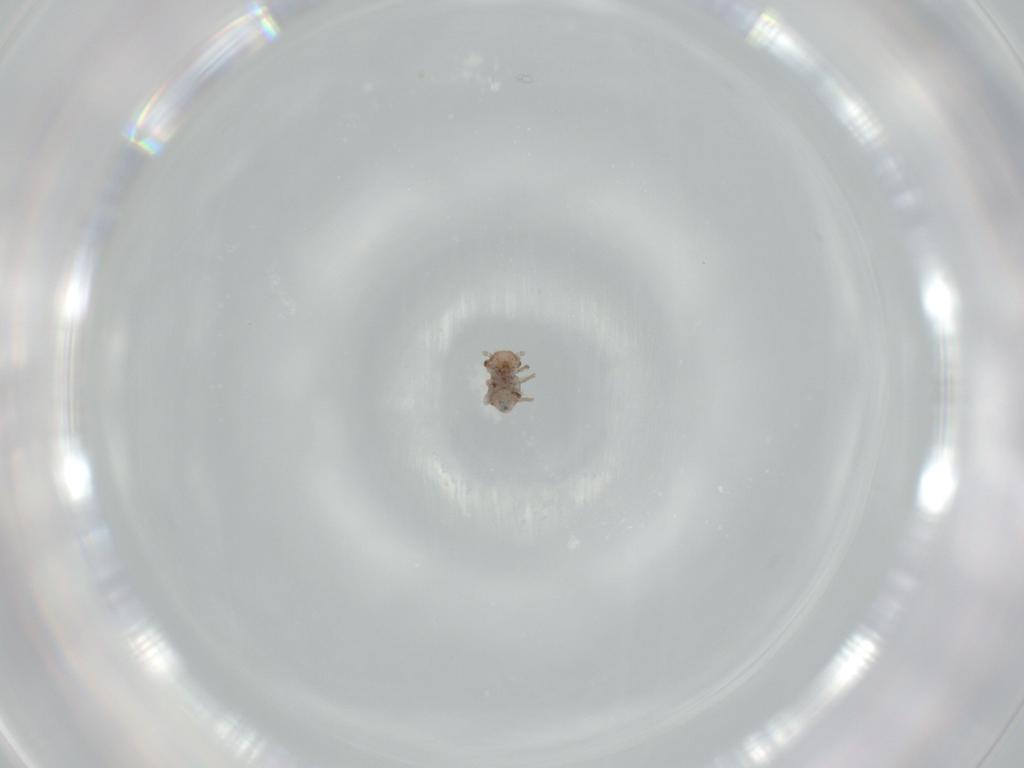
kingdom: Animalia
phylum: Arthropoda
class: Insecta
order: Psocodea
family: Ectopsocidae
